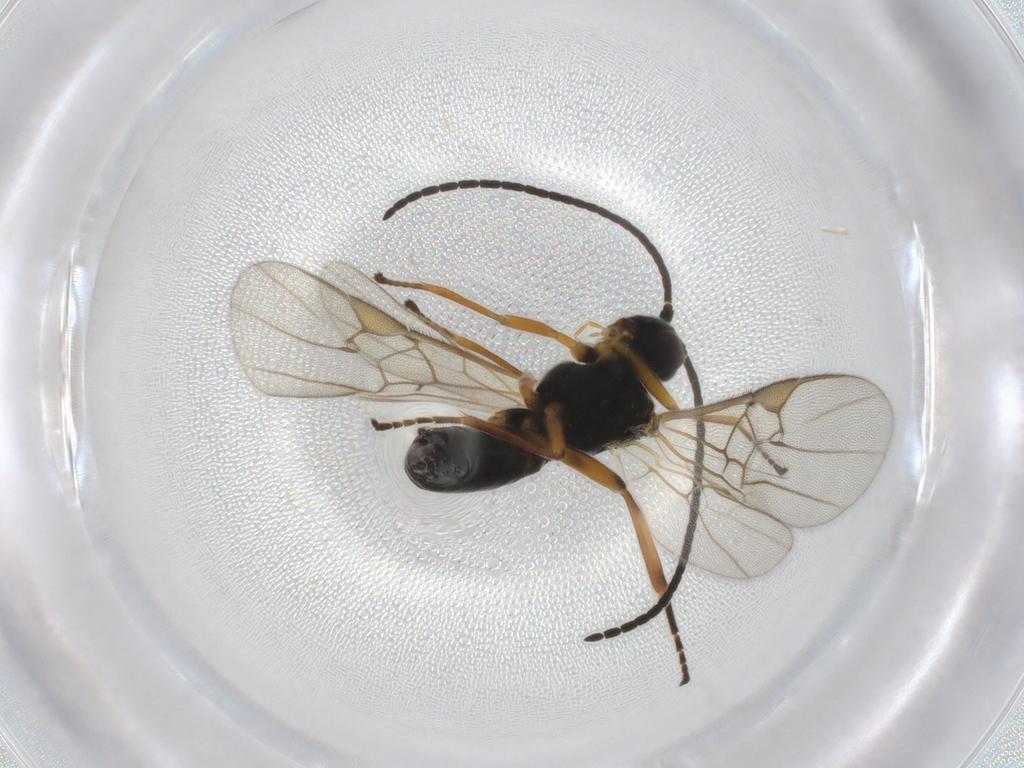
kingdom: Animalia
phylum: Arthropoda
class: Insecta
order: Hymenoptera
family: Braconidae
